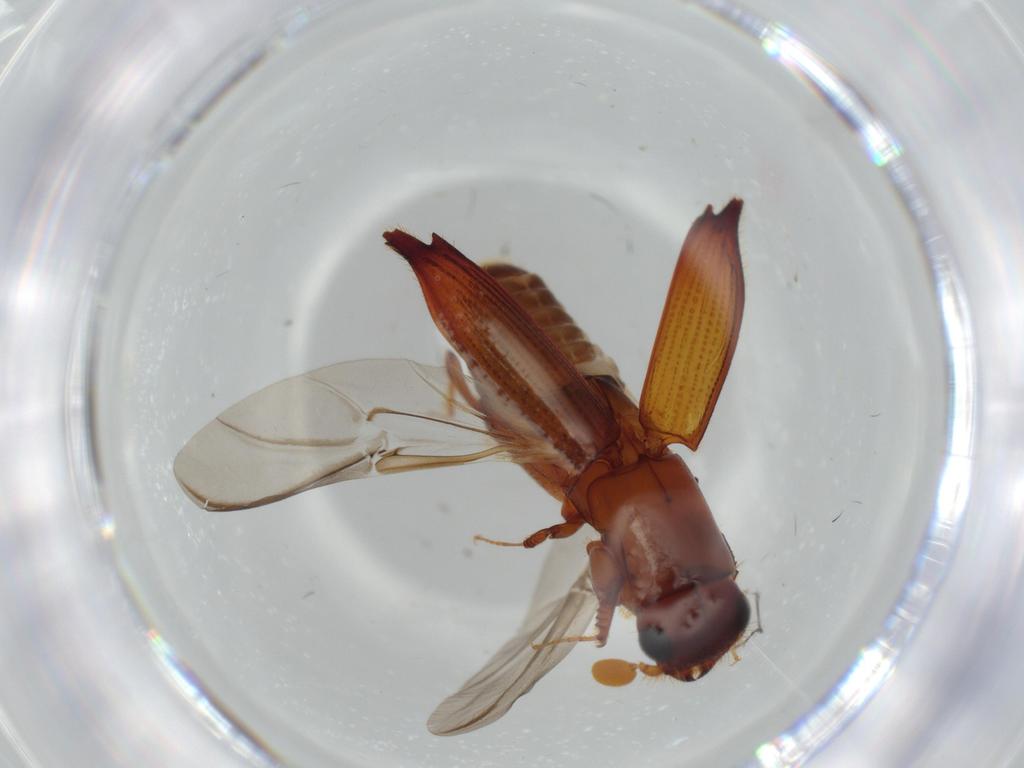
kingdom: Animalia
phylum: Arthropoda
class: Insecta
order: Coleoptera
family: Curculionidae
